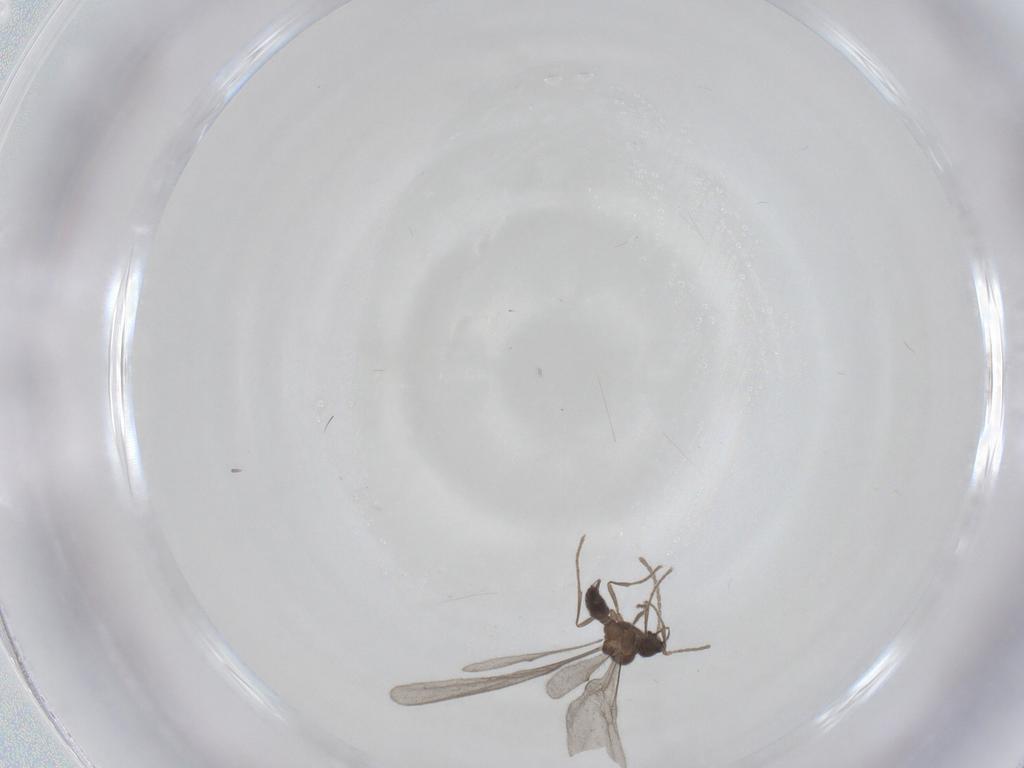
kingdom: Animalia
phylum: Arthropoda
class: Insecta
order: Hymenoptera
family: Formicidae
